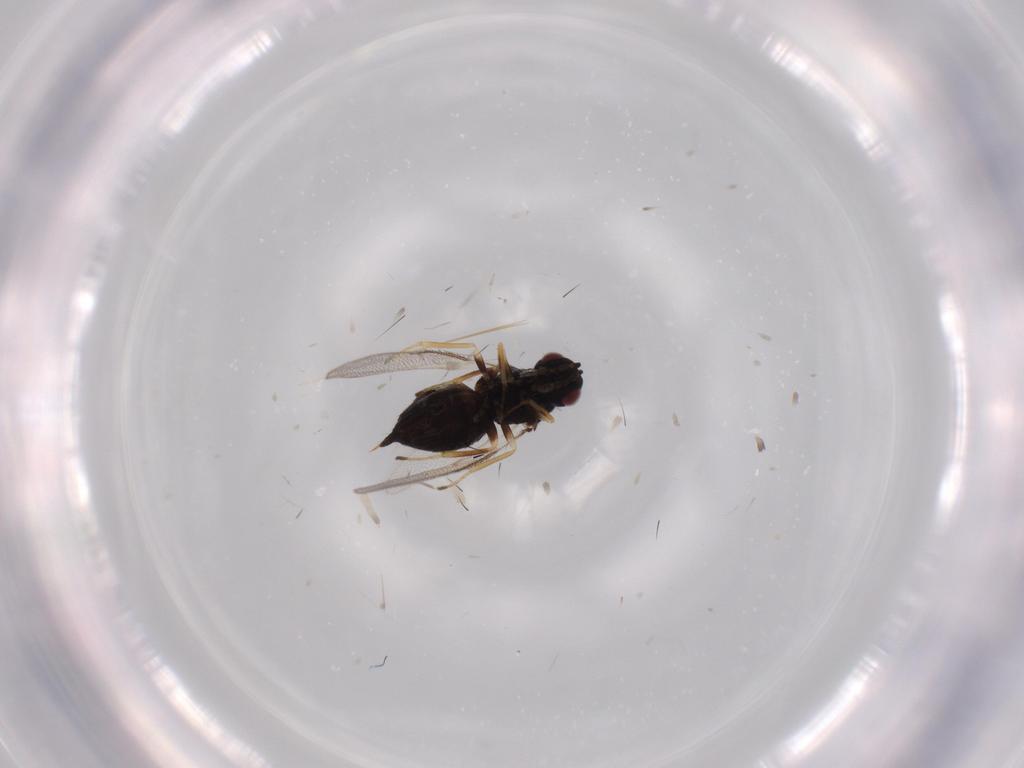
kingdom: Animalia
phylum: Arthropoda
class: Insecta
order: Hymenoptera
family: Eulophidae
